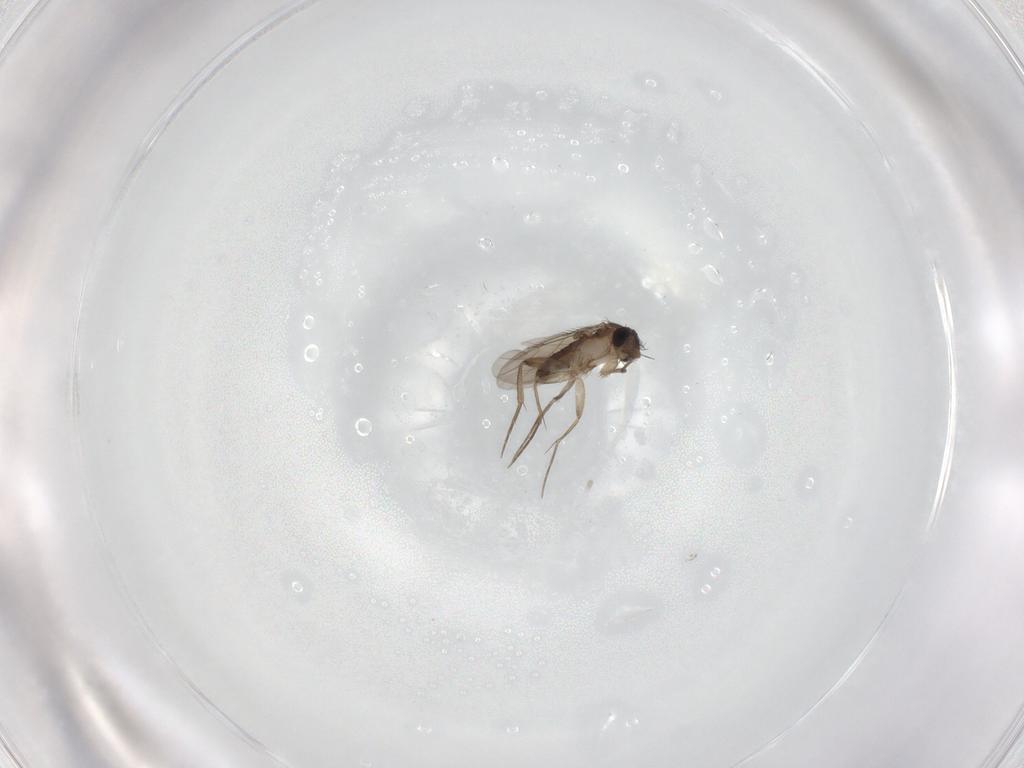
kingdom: Animalia
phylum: Arthropoda
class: Insecta
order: Diptera
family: Phoridae
